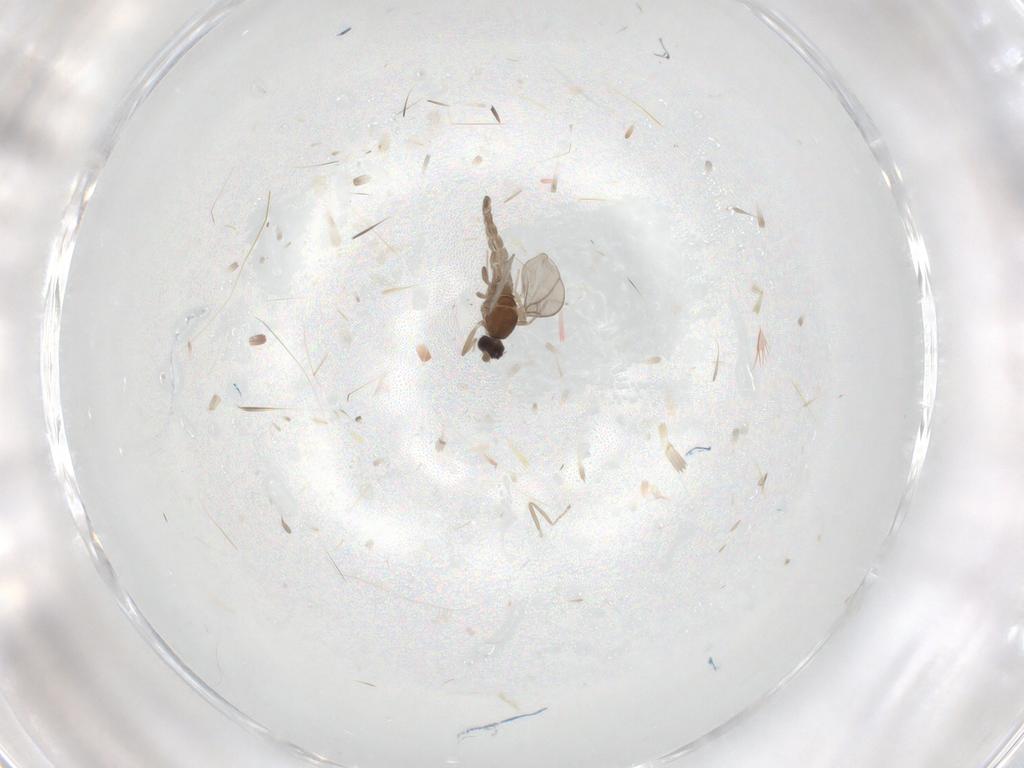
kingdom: Animalia
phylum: Arthropoda
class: Insecta
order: Diptera
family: Cecidomyiidae
